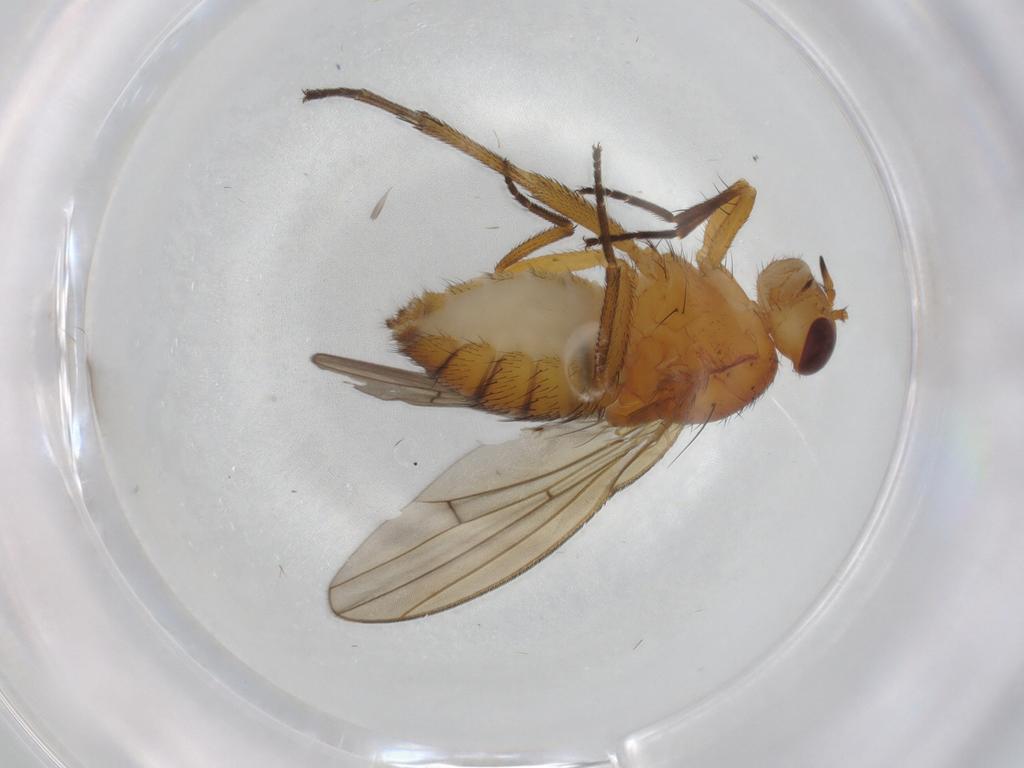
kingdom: Animalia
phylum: Arthropoda
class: Insecta
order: Diptera
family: Lauxaniidae
